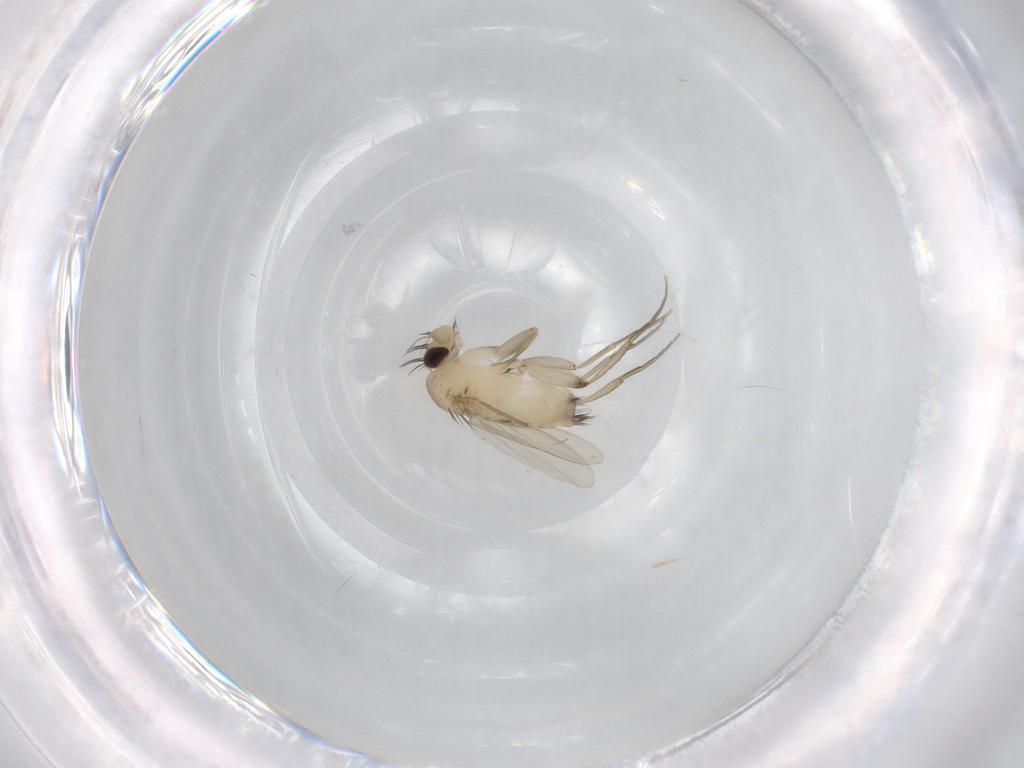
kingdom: Animalia
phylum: Arthropoda
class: Insecta
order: Diptera
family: Phoridae
